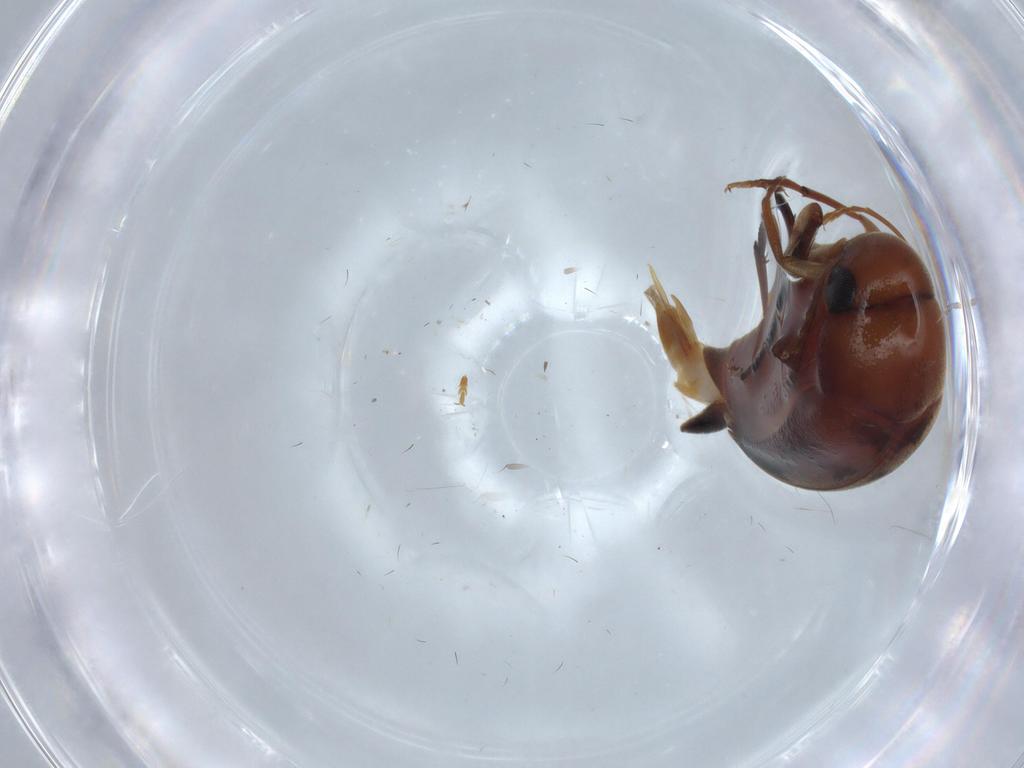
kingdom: Animalia
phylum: Arthropoda
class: Insecta
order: Coleoptera
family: Mordellidae
